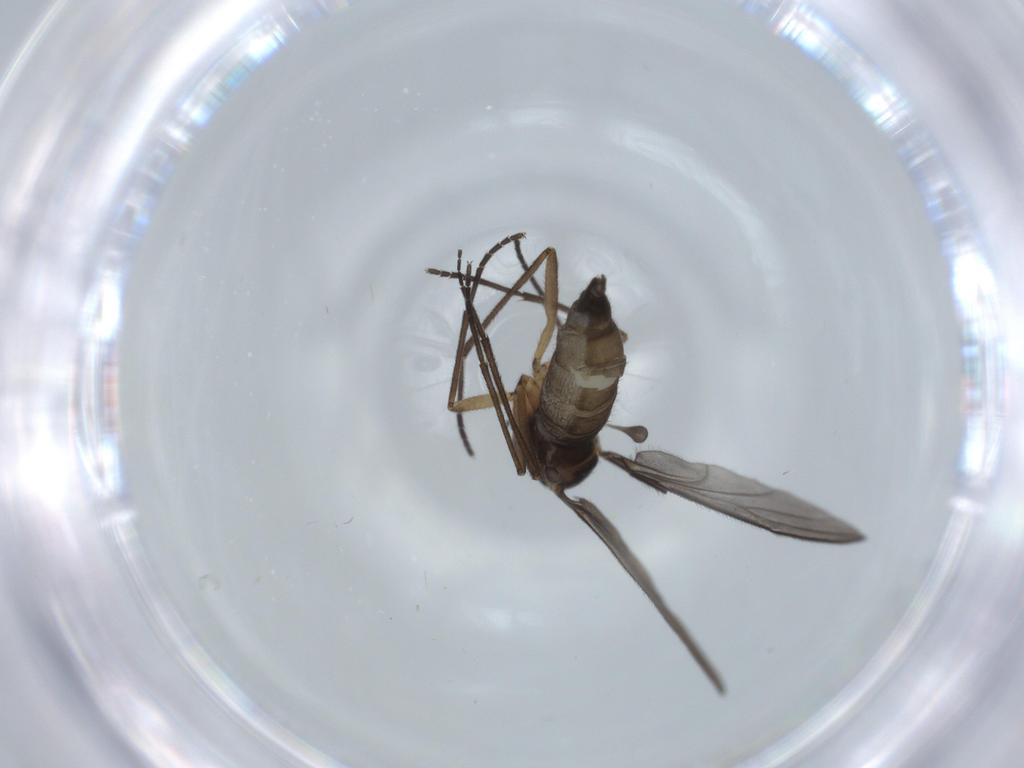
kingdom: Animalia
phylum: Arthropoda
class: Insecta
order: Diptera
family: Sciaridae
